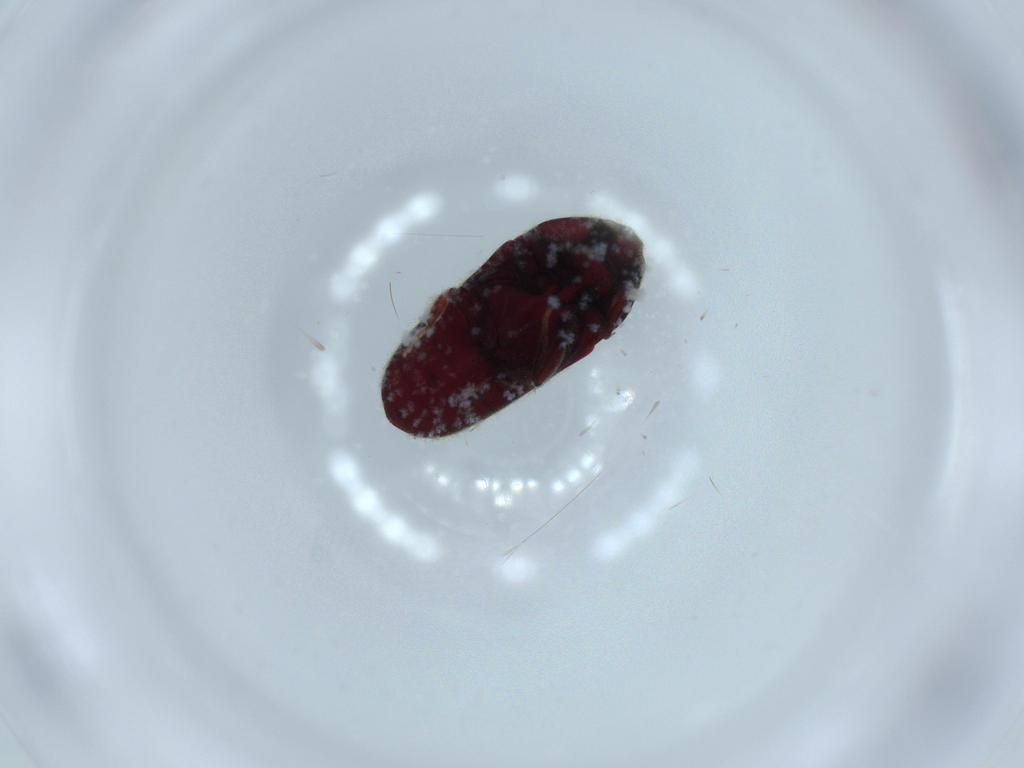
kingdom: Animalia
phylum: Arthropoda
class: Insecta
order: Coleoptera
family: Throscidae
